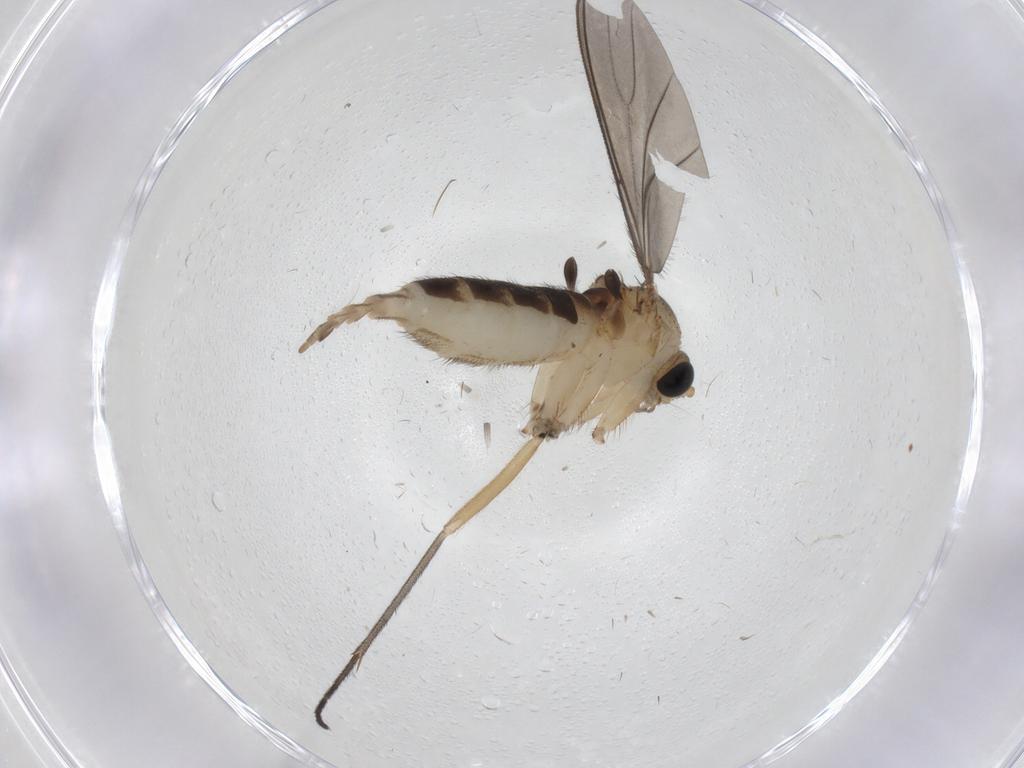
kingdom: Animalia
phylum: Arthropoda
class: Insecta
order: Diptera
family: Sciaridae
